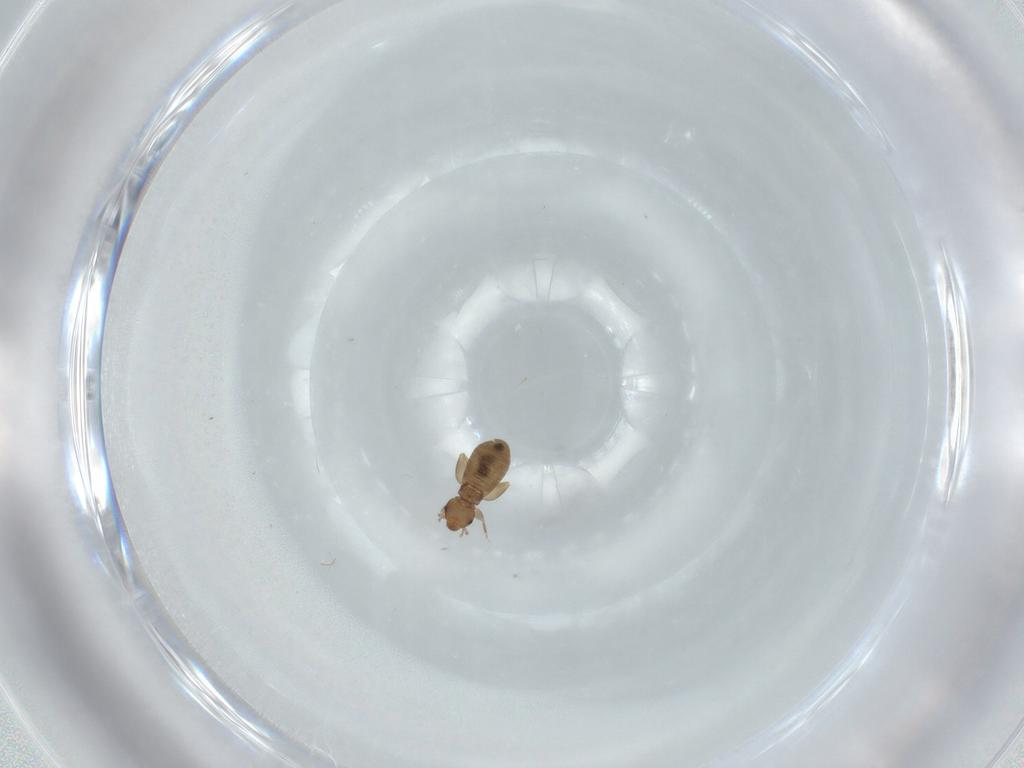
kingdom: Animalia
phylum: Arthropoda
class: Insecta
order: Psocodea
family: Liposcelididae
